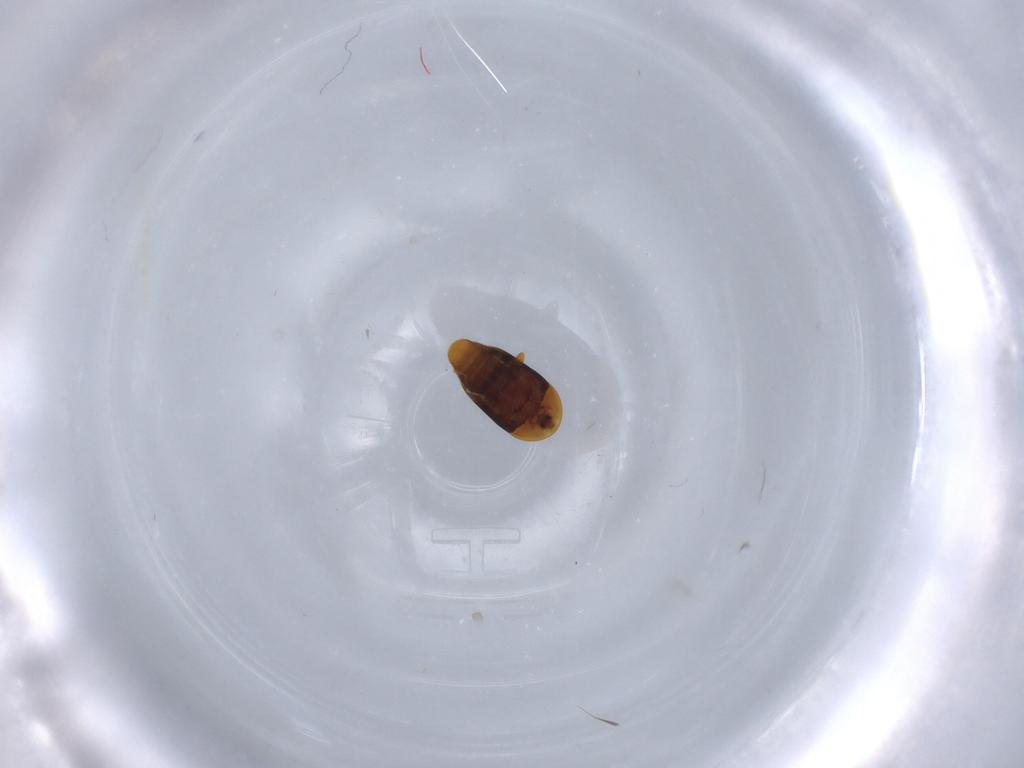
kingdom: Animalia
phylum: Arthropoda
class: Insecta
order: Coleoptera
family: Corylophidae
